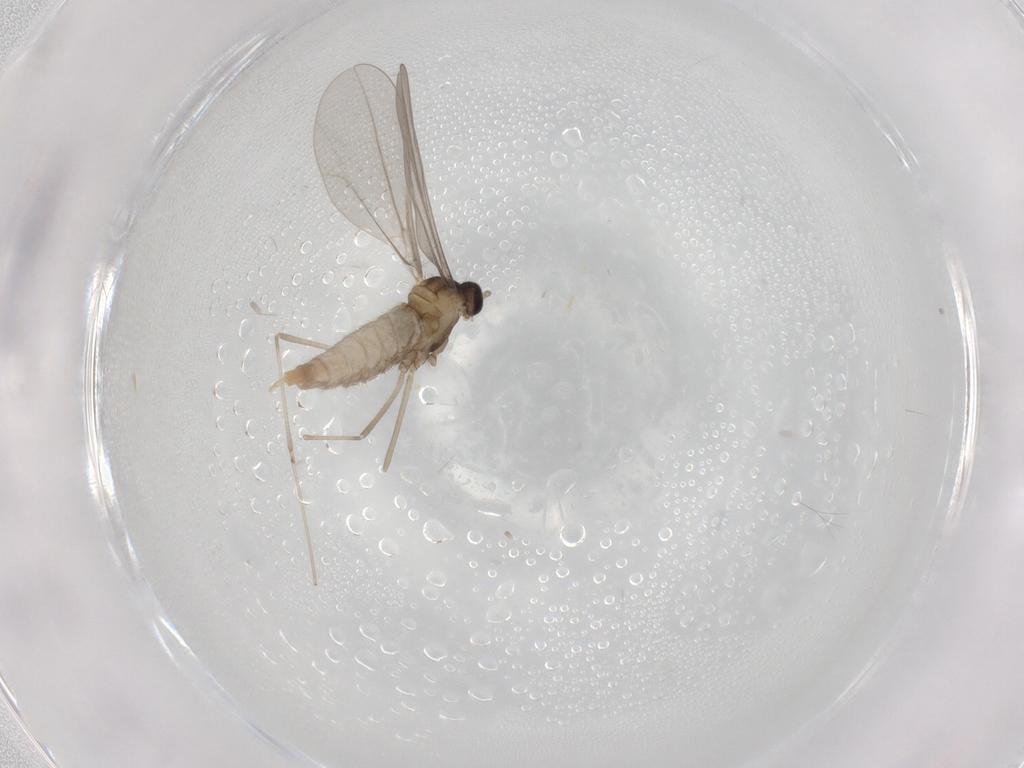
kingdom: Animalia
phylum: Arthropoda
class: Insecta
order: Diptera
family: Cecidomyiidae
